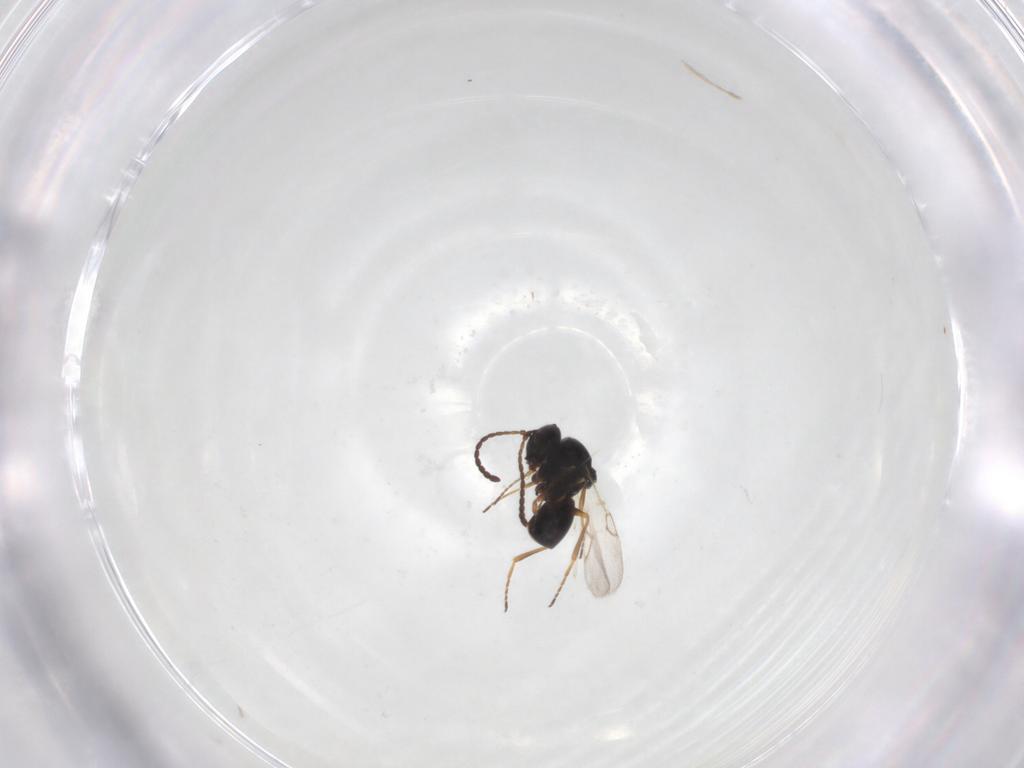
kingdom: Animalia
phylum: Arthropoda
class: Insecta
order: Hymenoptera
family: Figitidae
